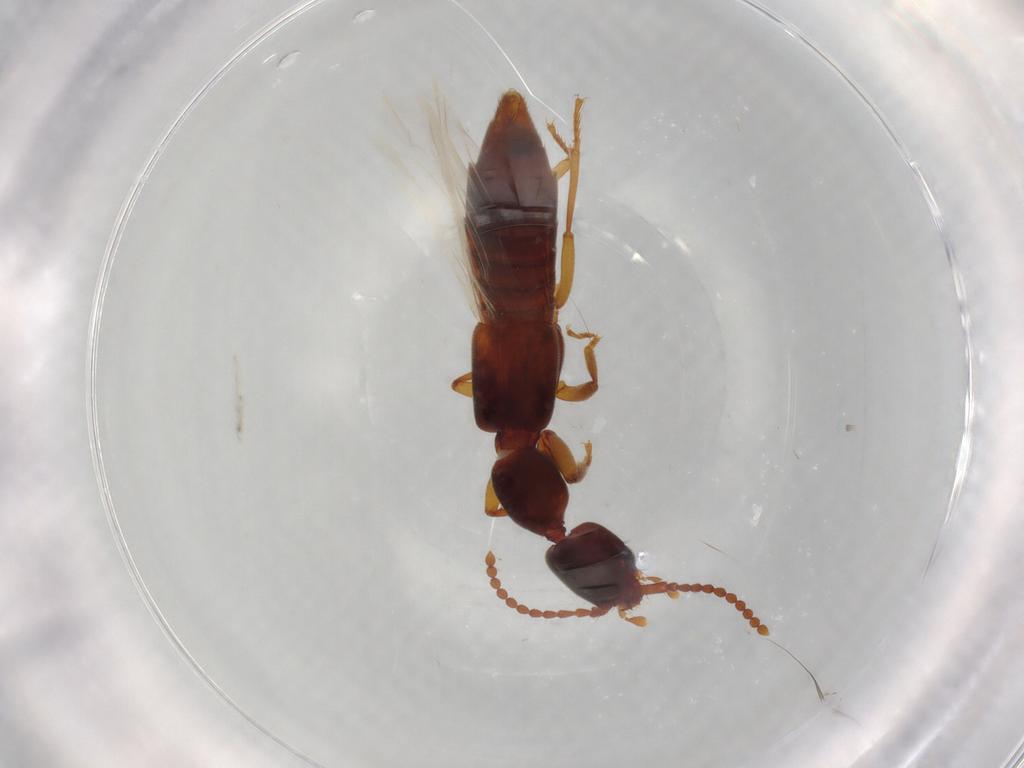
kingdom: Animalia
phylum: Arthropoda
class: Insecta
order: Coleoptera
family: Staphylinidae
